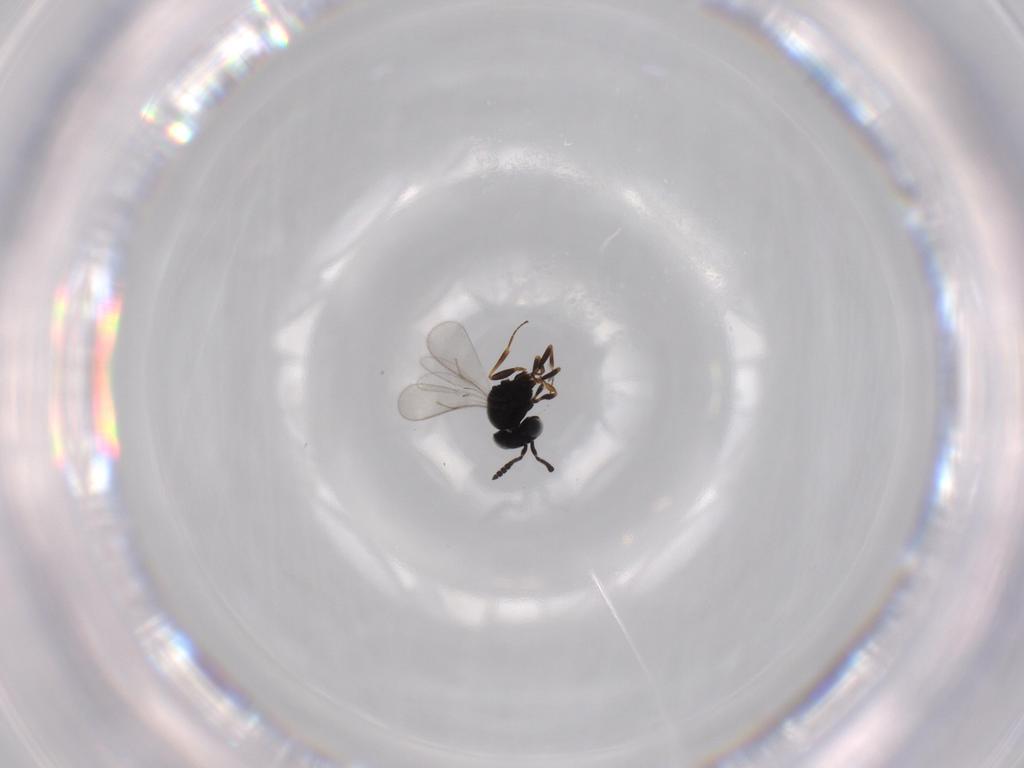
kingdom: Animalia
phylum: Arthropoda
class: Insecta
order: Hymenoptera
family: Scelionidae
